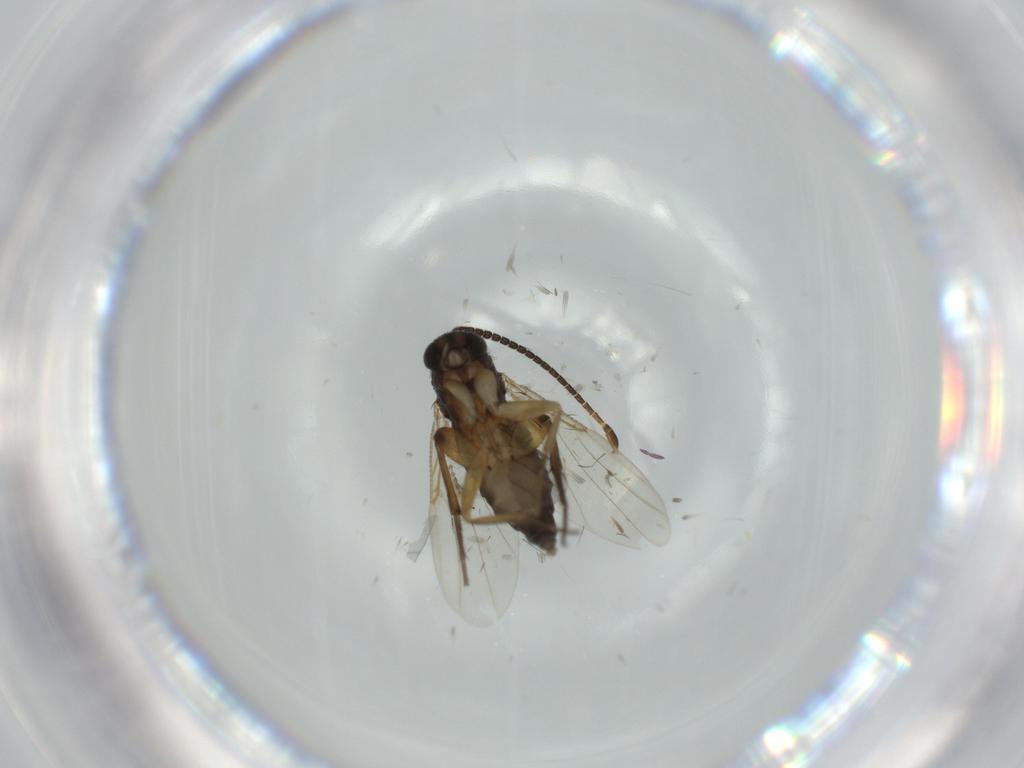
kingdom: Animalia
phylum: Arthropoda
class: Insecta
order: Diptera
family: Sciaridae
